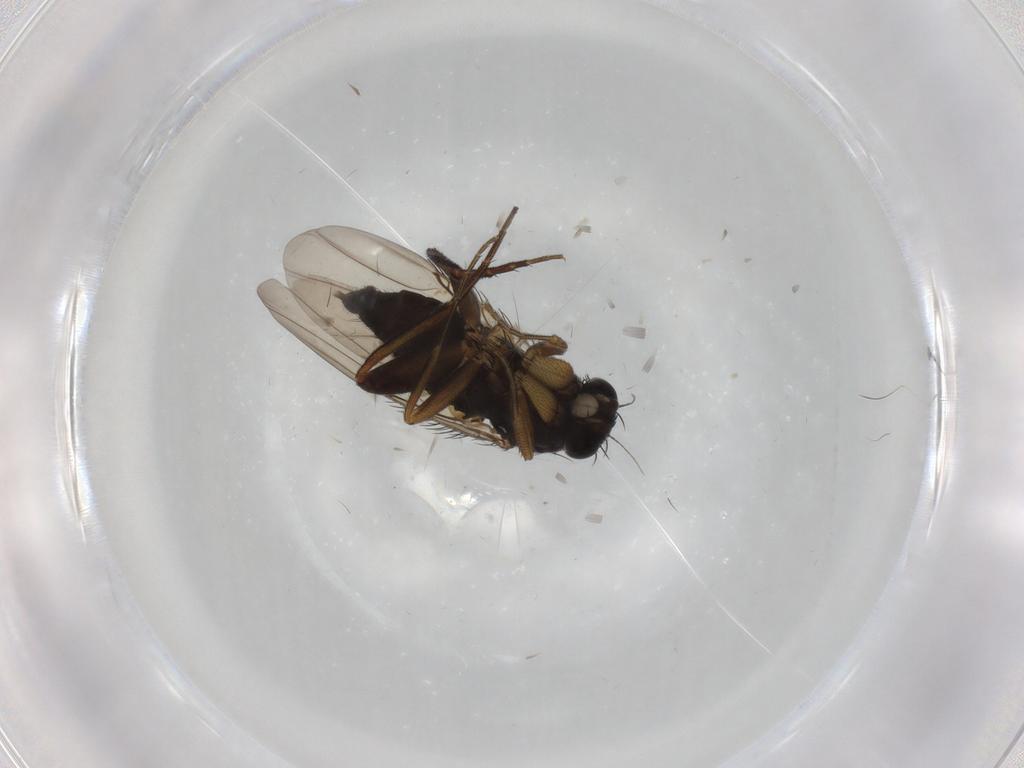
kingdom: Animalia
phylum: Arthropoda
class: Insecta
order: Diptera
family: Phoridae
